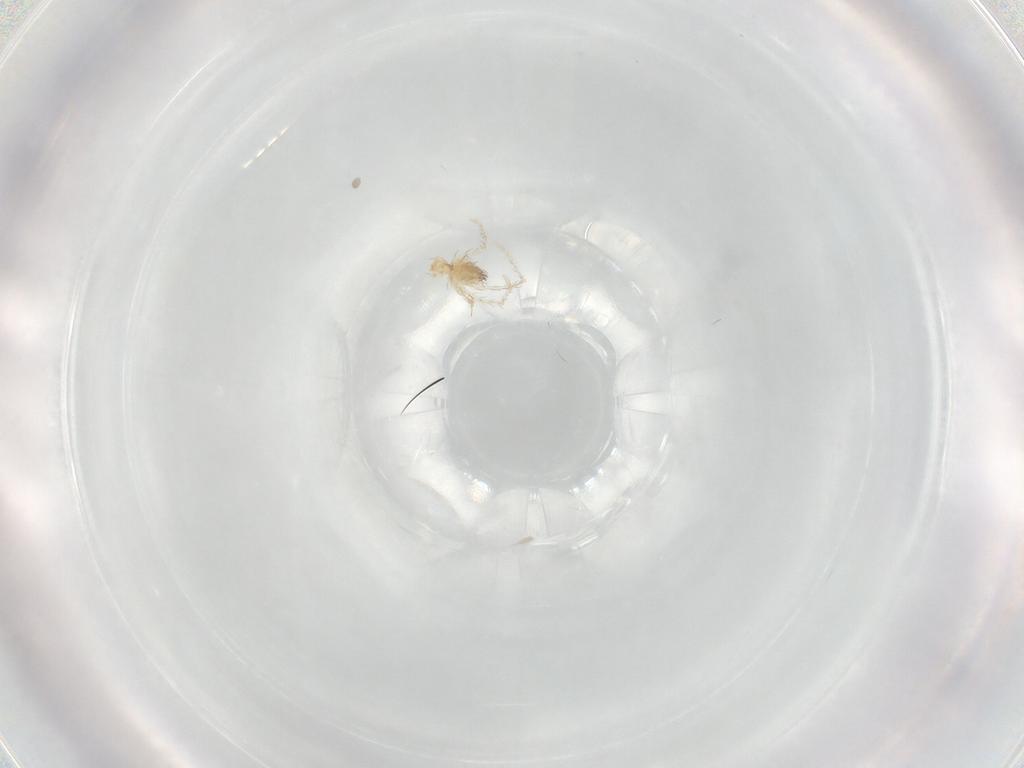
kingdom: Animalia
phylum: Arthropoda
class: Arachnida
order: Trombidiformes
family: Erythraeidae
